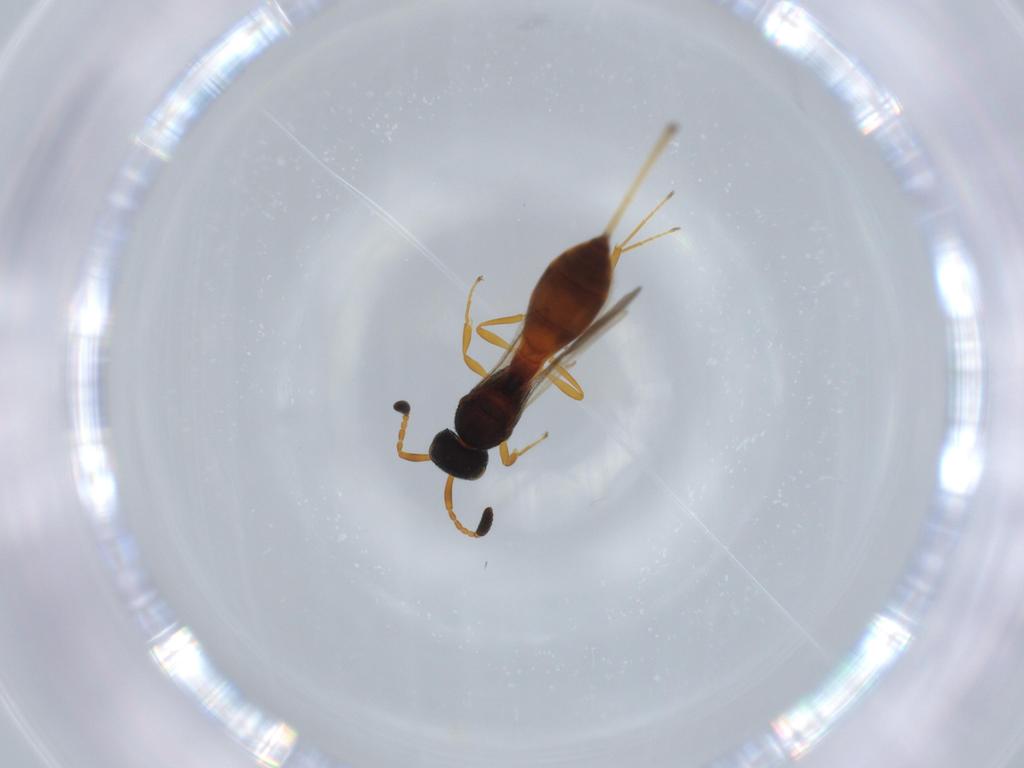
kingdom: Animalia
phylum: Arthropoda
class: Insecta
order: Hymenoptera
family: Scelionidae
